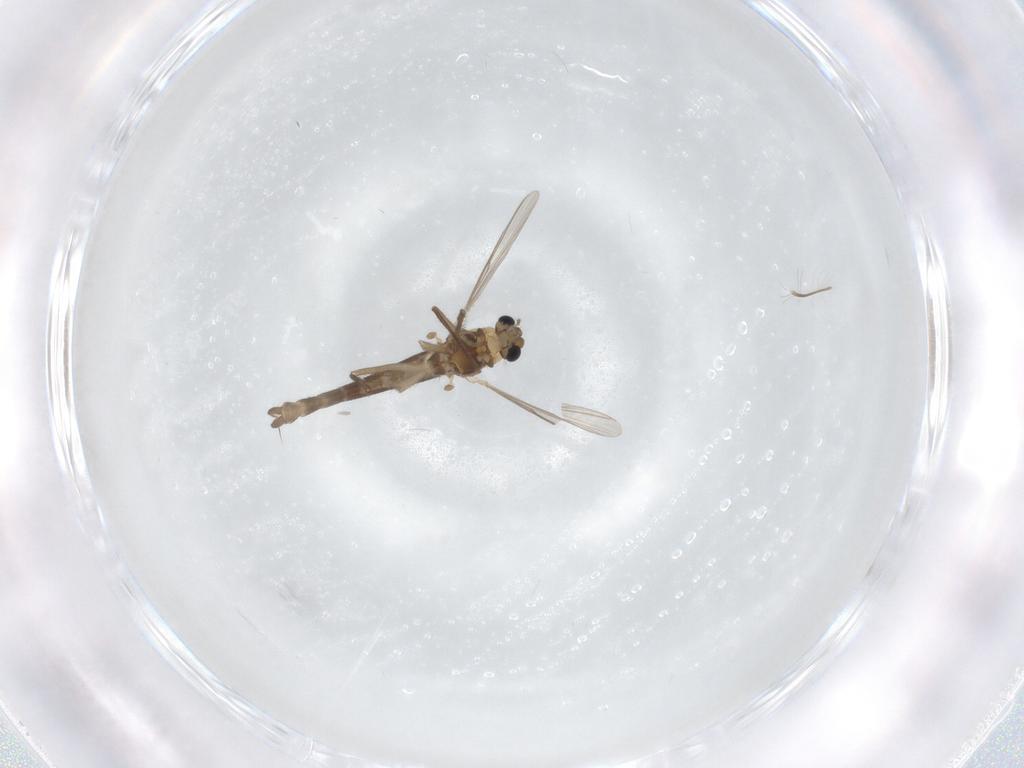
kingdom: Animalia
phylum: Arthropoda
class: Insecta
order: Diptera
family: Chironomidae
